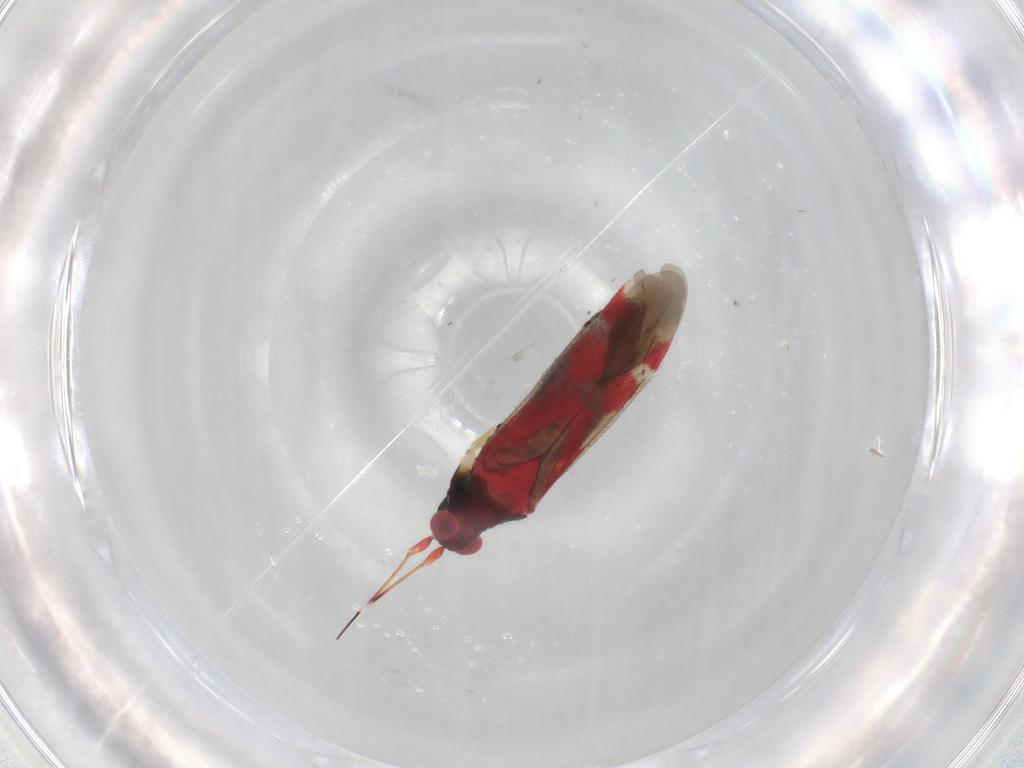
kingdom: Animalia
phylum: Arthropoda
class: Insecta
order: Hemiptera
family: Miridae
